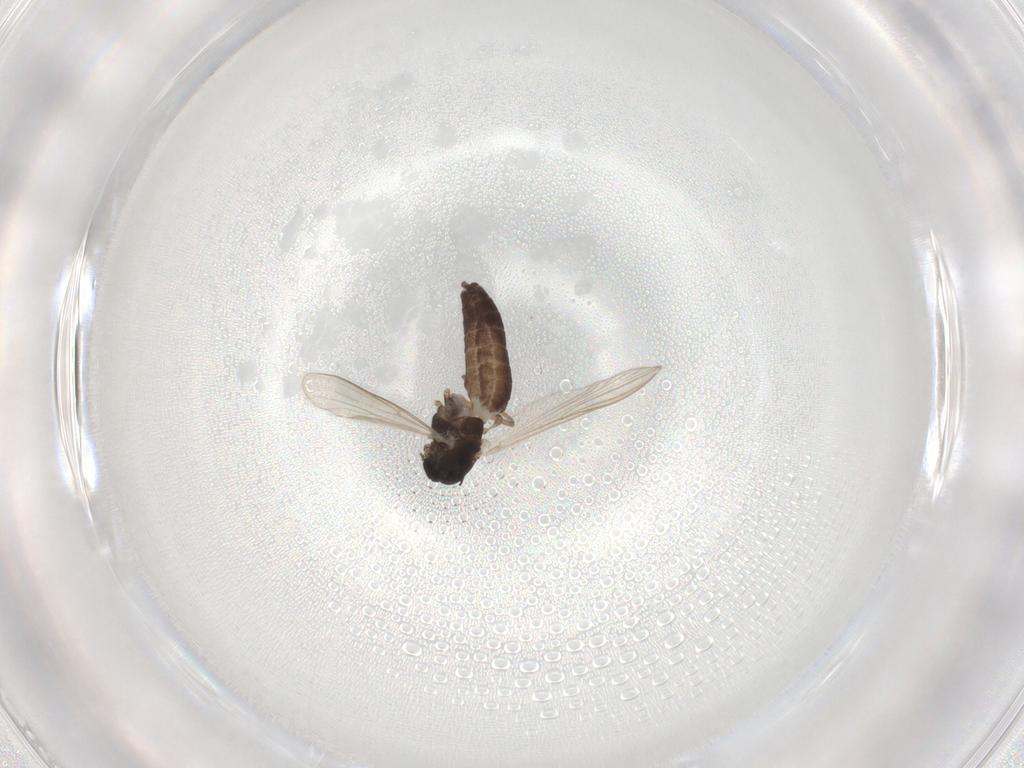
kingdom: Animalia
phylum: Arthropoda
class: Insecta
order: Diptera
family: Chironomidae
